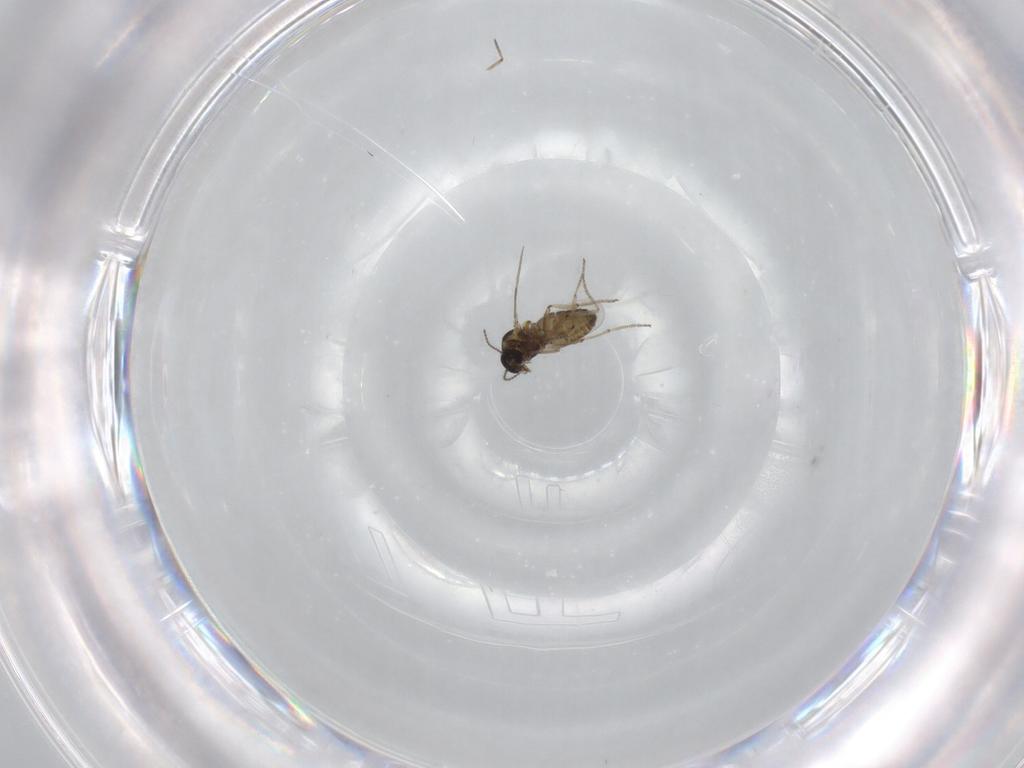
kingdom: Animalia
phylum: Arthropoda
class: Insecta
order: Diptera
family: Ceratopogonidae
